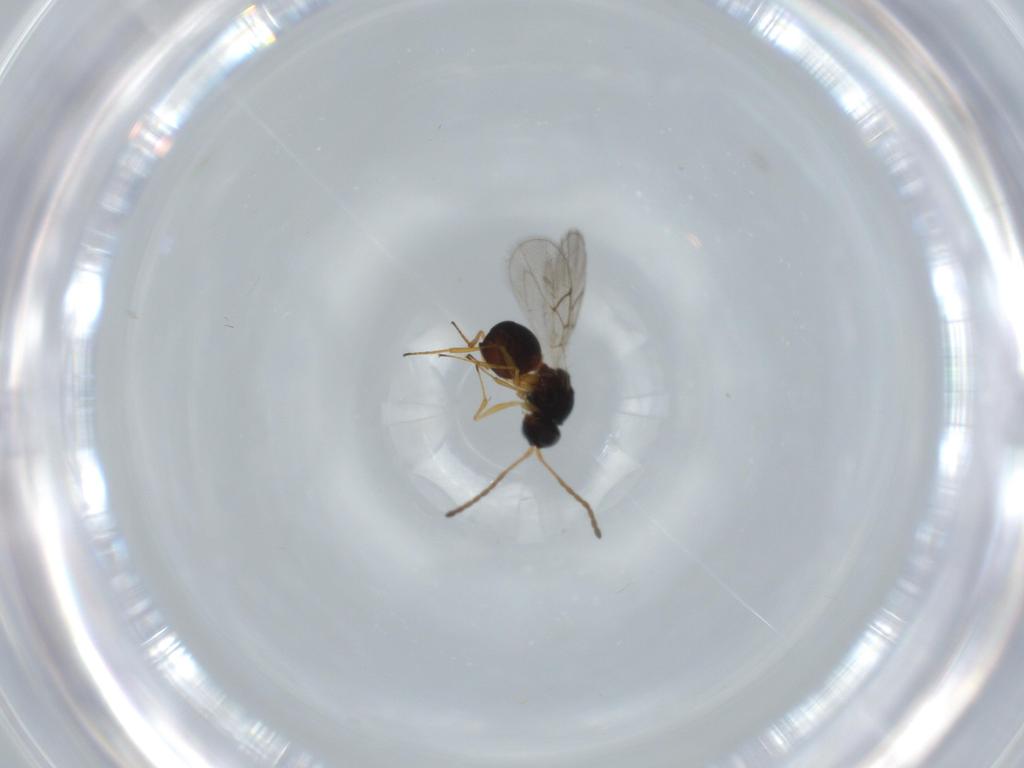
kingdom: Animalia
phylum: Arthropoda
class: Insecta
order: Hymenoptera
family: Figitidae
